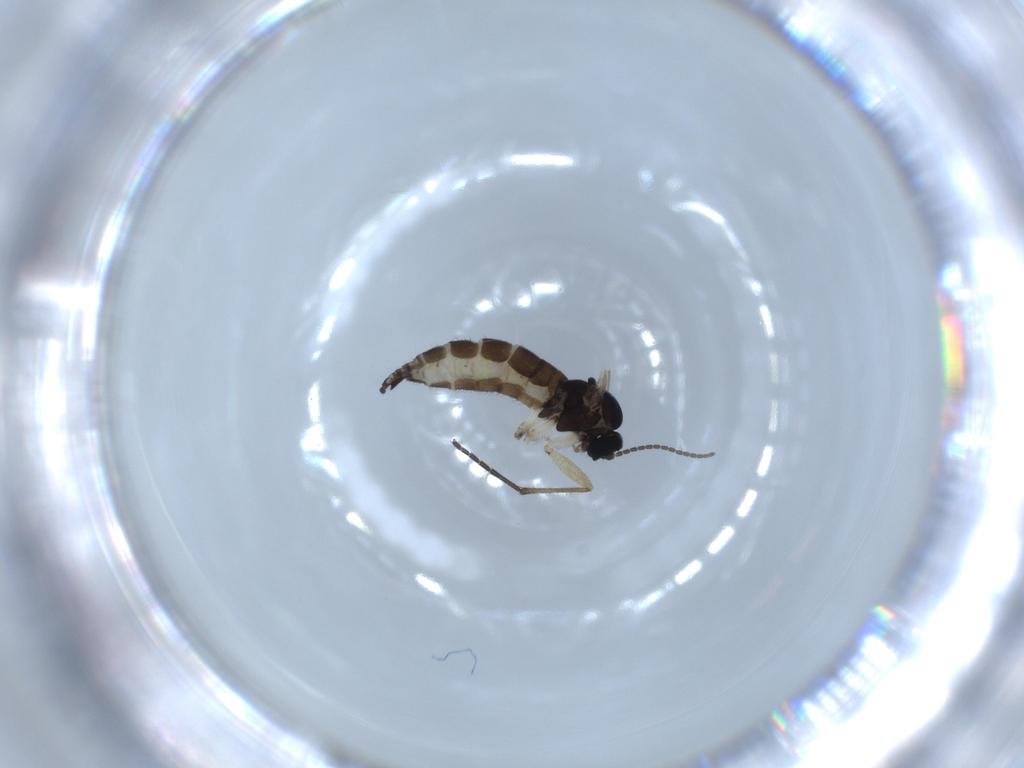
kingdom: Animalia
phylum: Arthropoda
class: Insecta
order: Diptera
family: Sciaridae
